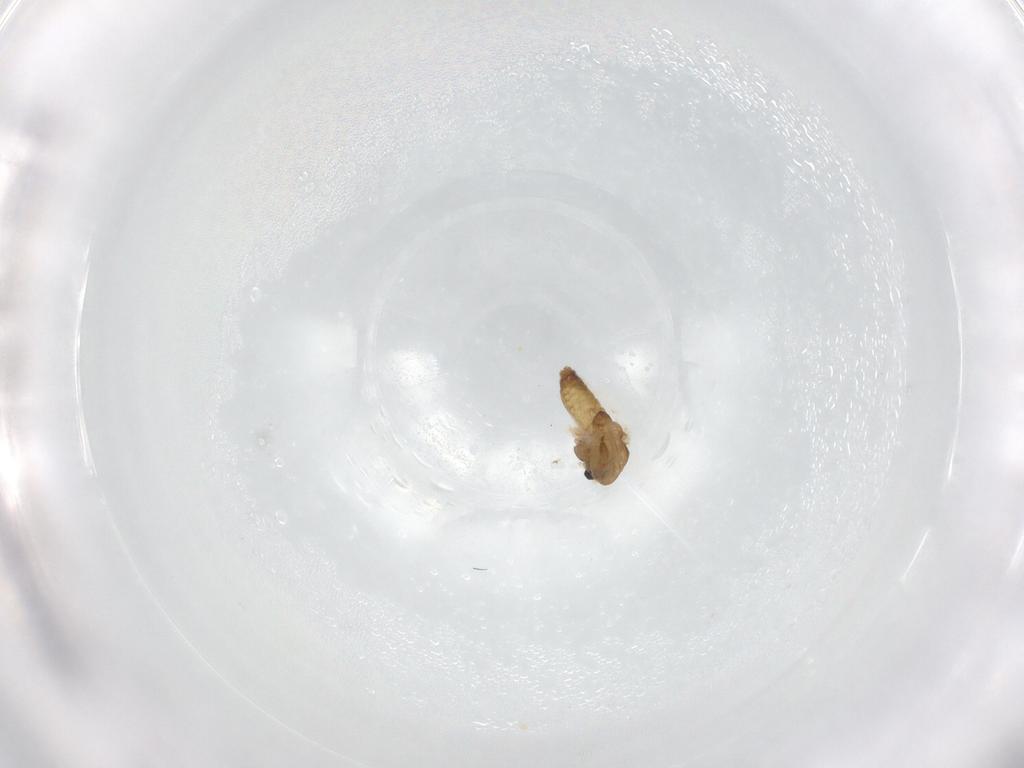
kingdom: Animalia
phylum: Arthropoda
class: Insecta
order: Diptera
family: Chironomidae
